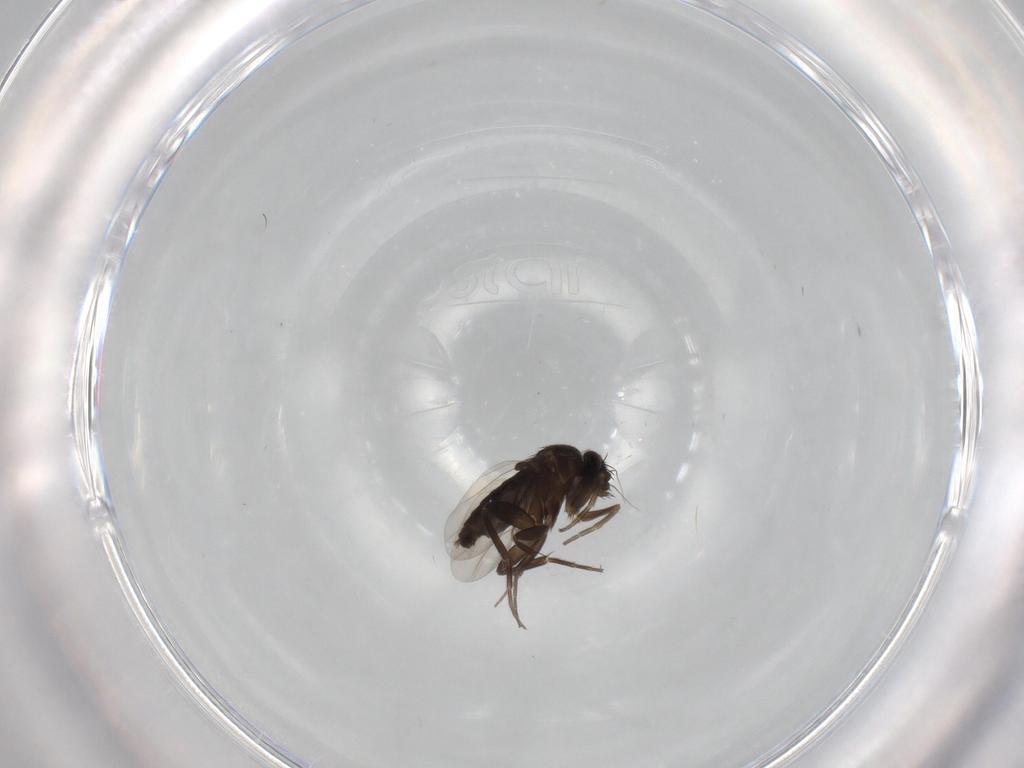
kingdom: Animalia
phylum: Arthropoda
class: Insecta
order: Diptera
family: Phoridae
